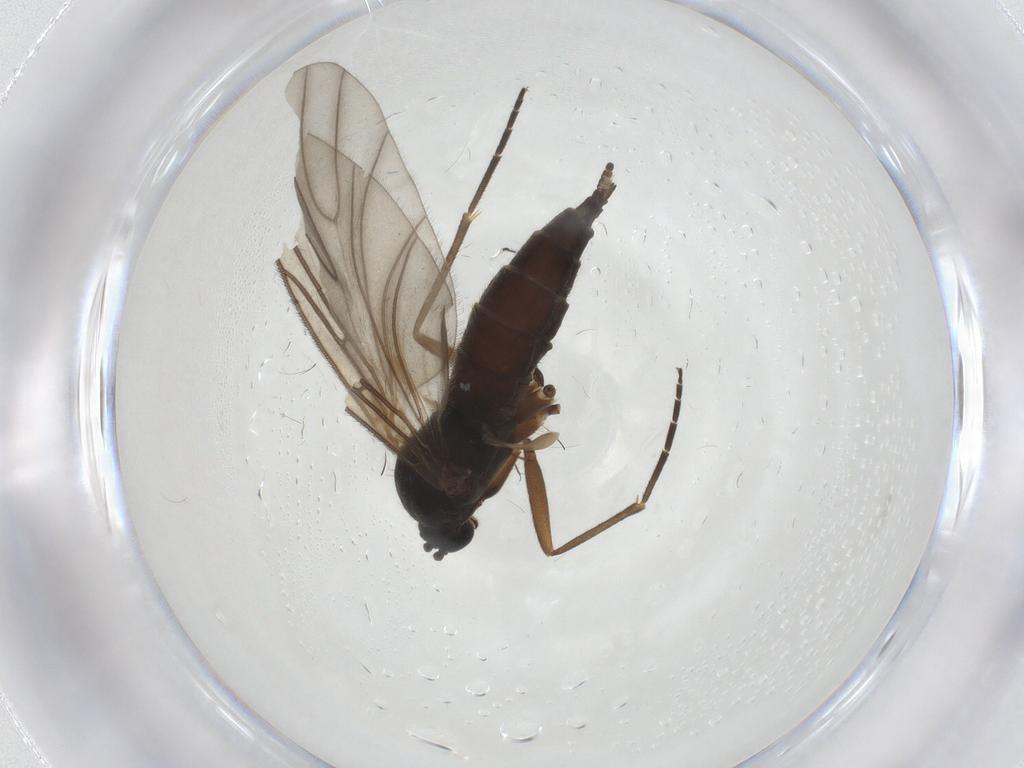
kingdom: Animalia
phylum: Arthropoda
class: Insecta
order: Diptera
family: Sciaridae
